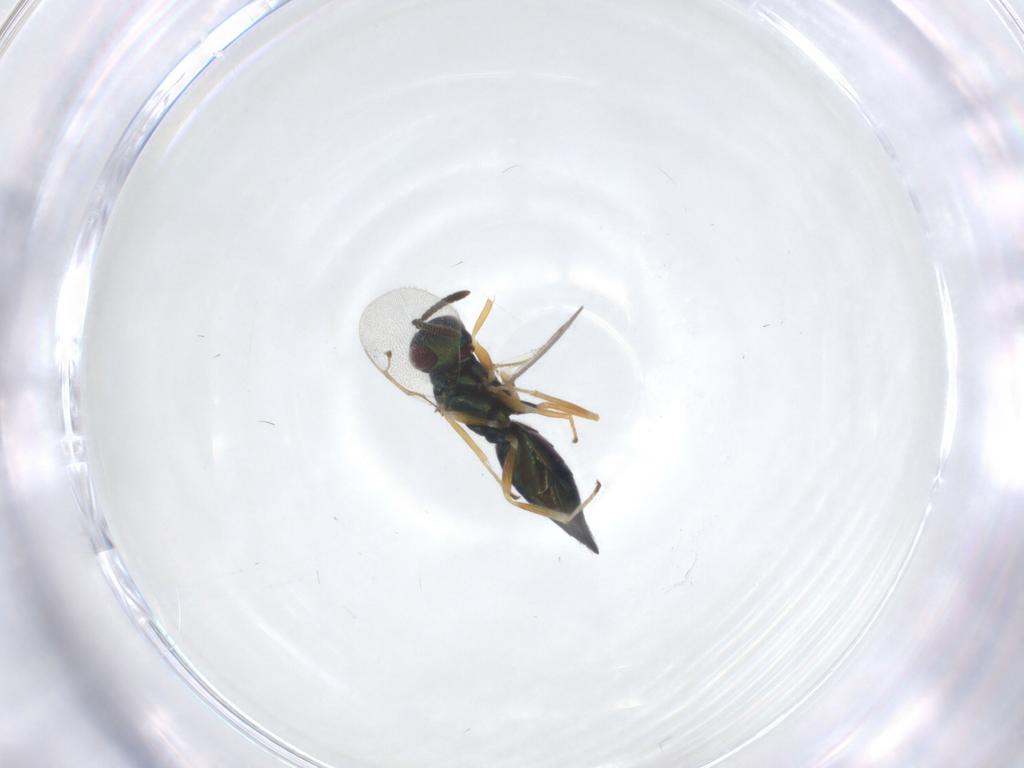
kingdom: Animalia
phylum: Arthropoda
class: Insecta
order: Hymenoptera
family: Pteromalidae
